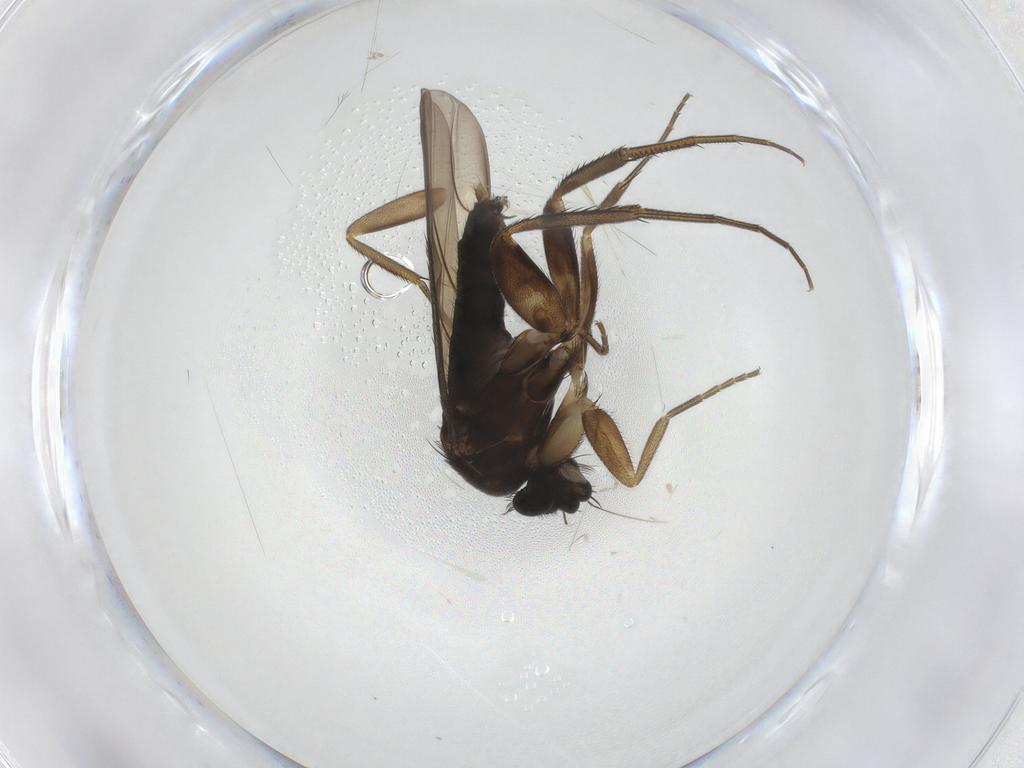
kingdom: Animalia
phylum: Arthropoda
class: Insecta
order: Diptera
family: Phoridae
